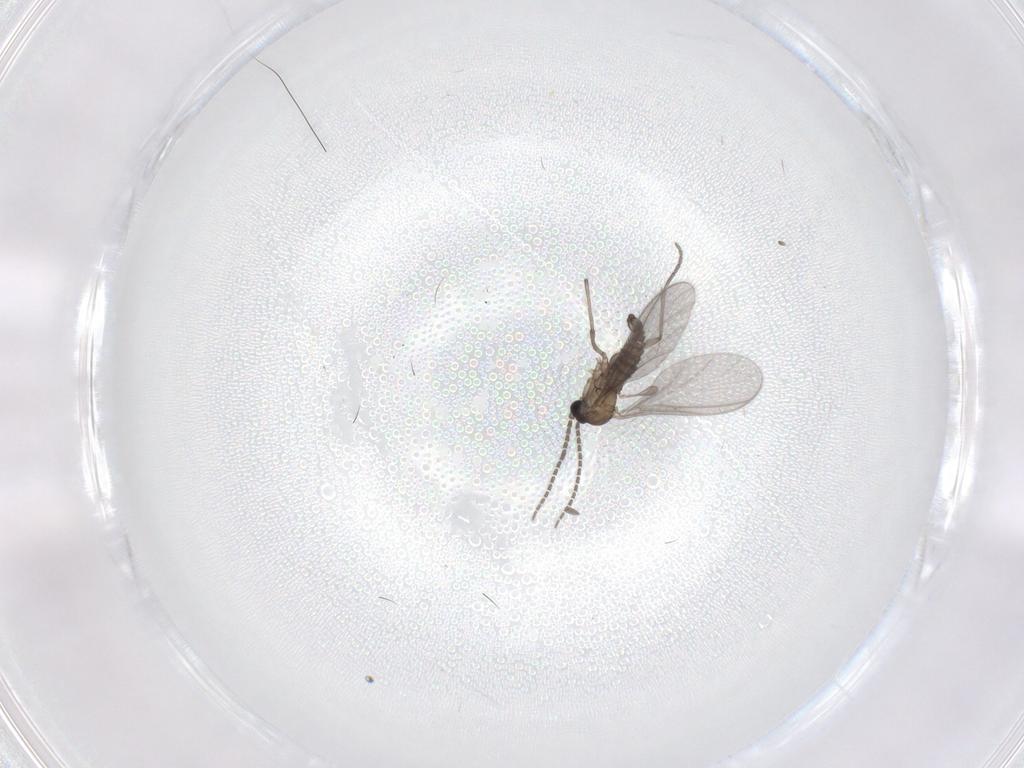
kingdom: Animalia
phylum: Arthropoda
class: Insecta
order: Diptera
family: Sciaridae
